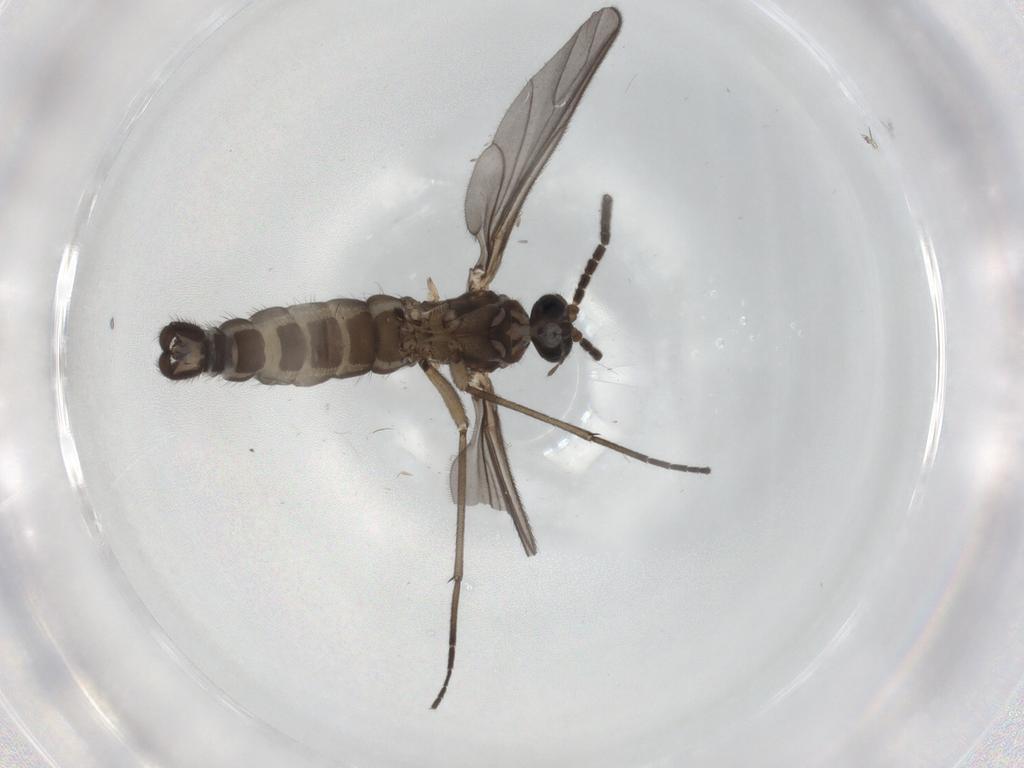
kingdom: Animalia
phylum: Arthropoda
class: Insecta
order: Diptera
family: Sciaridae
